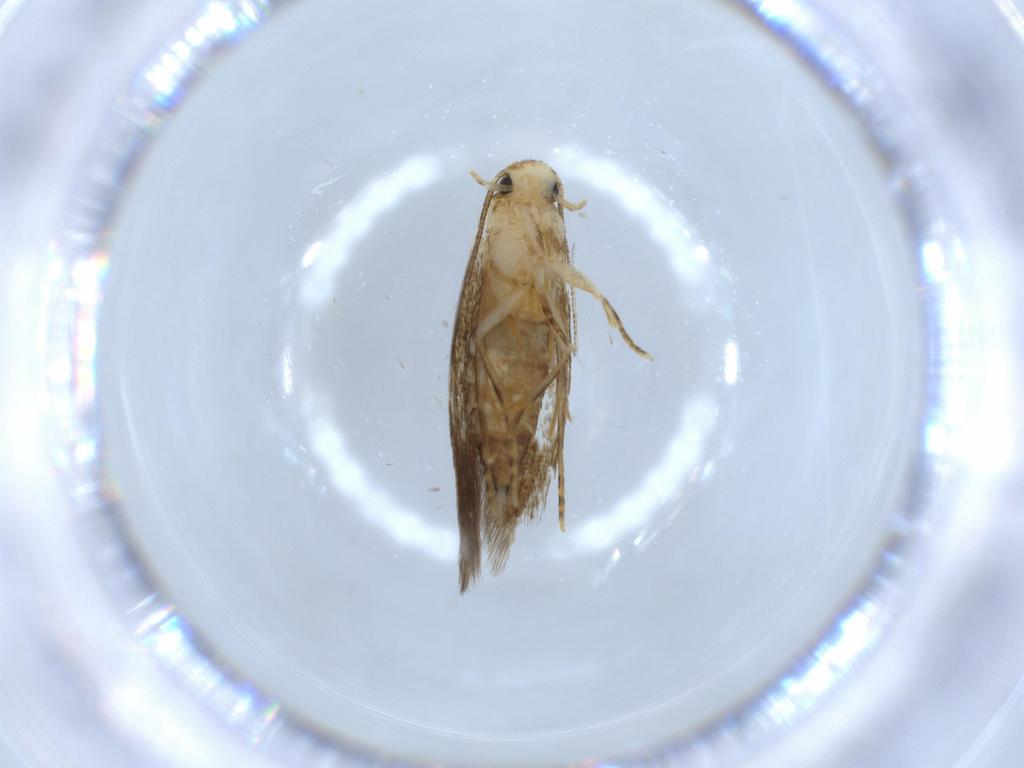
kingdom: Animalia
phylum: Arthropoda
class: Insecta
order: Lepidoptera
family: Tineidae
